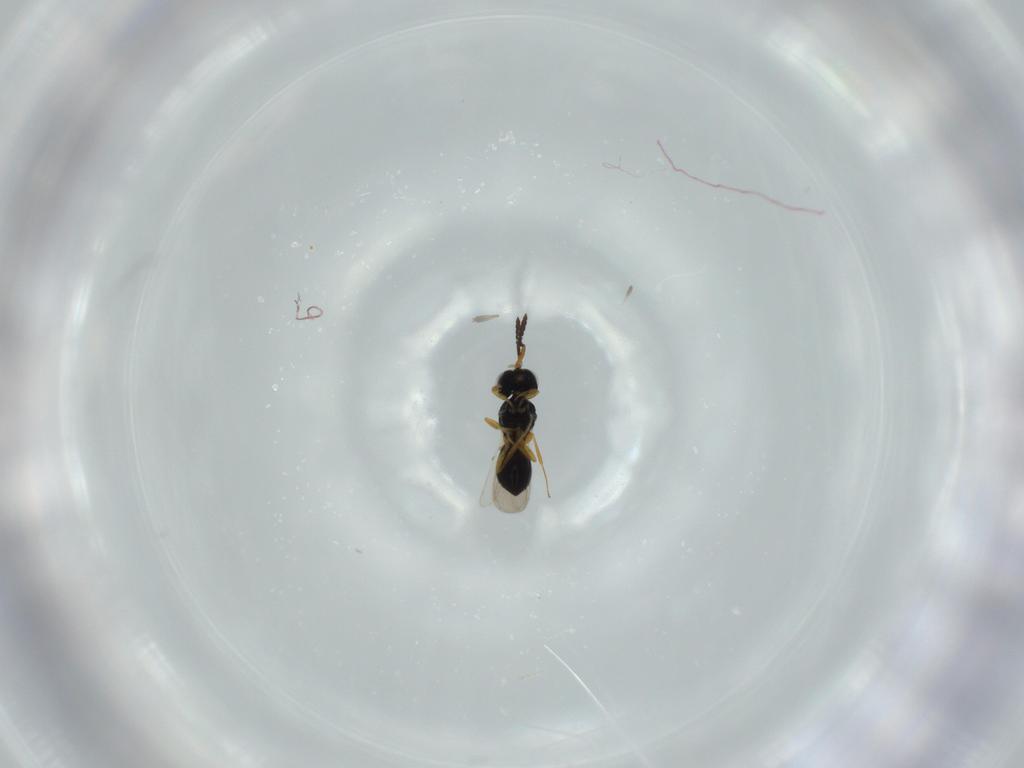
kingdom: Animalia
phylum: Arthropoda
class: Insecta
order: Hymenoptera
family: Scelionidae
